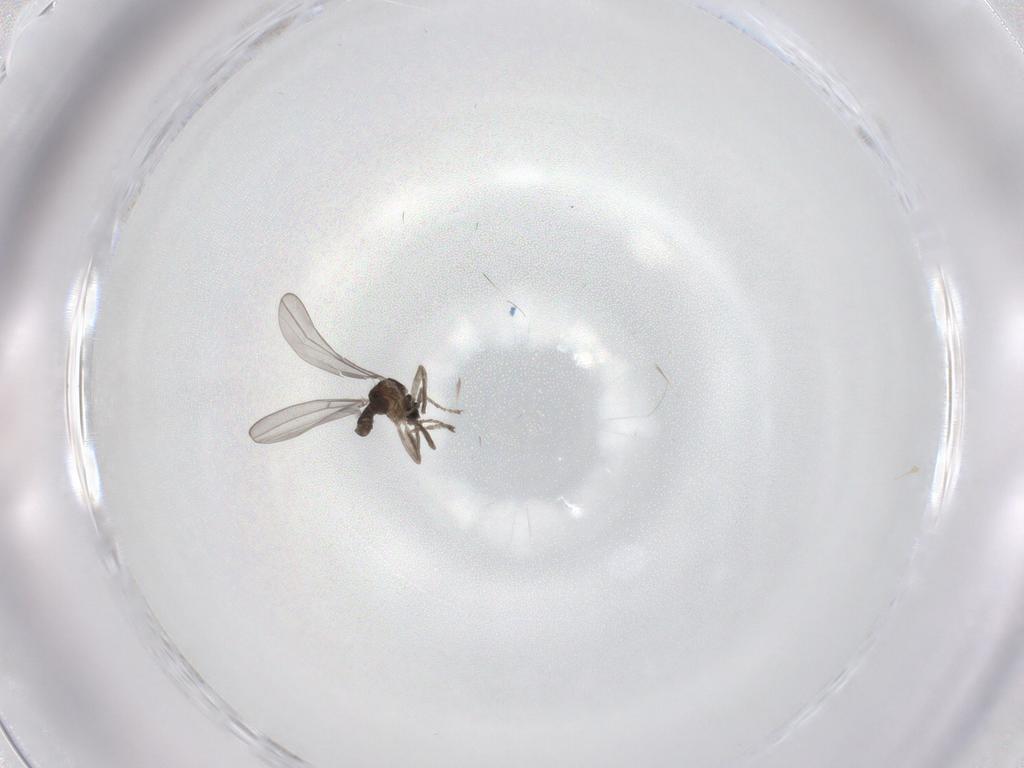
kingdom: Animalia
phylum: Arthropoda
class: Insecta
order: Diptera
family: Cecidomyiidae
